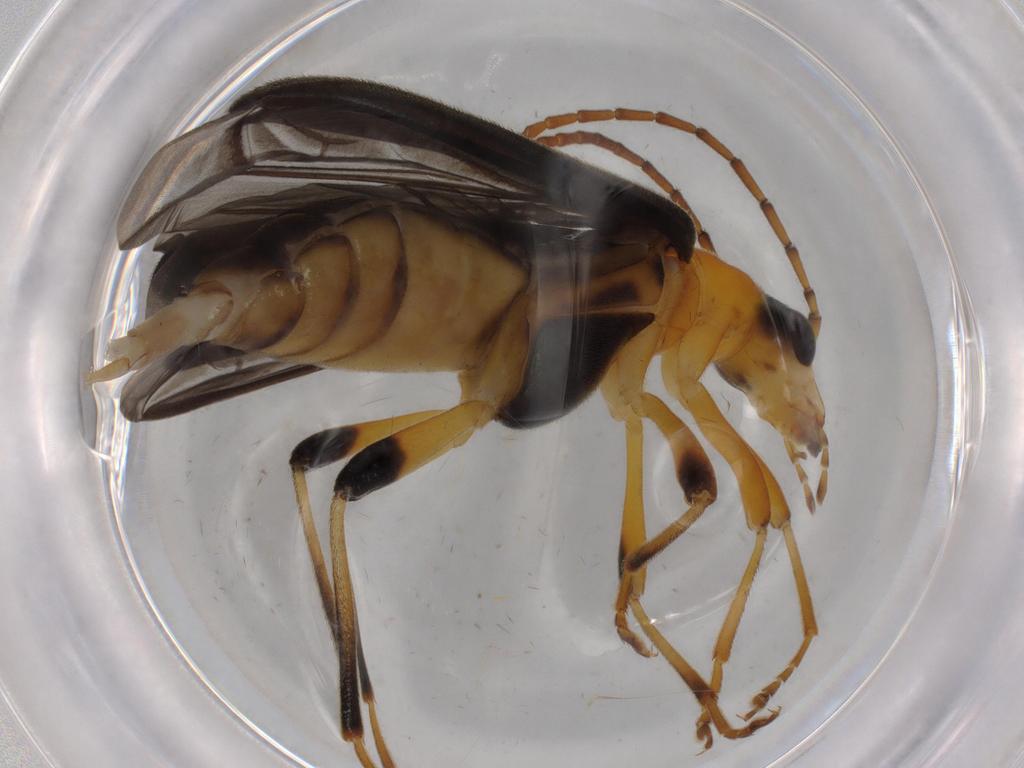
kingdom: Animalia
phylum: Arthropoda
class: Insecta
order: Coleoptera
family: Oedemeridae
